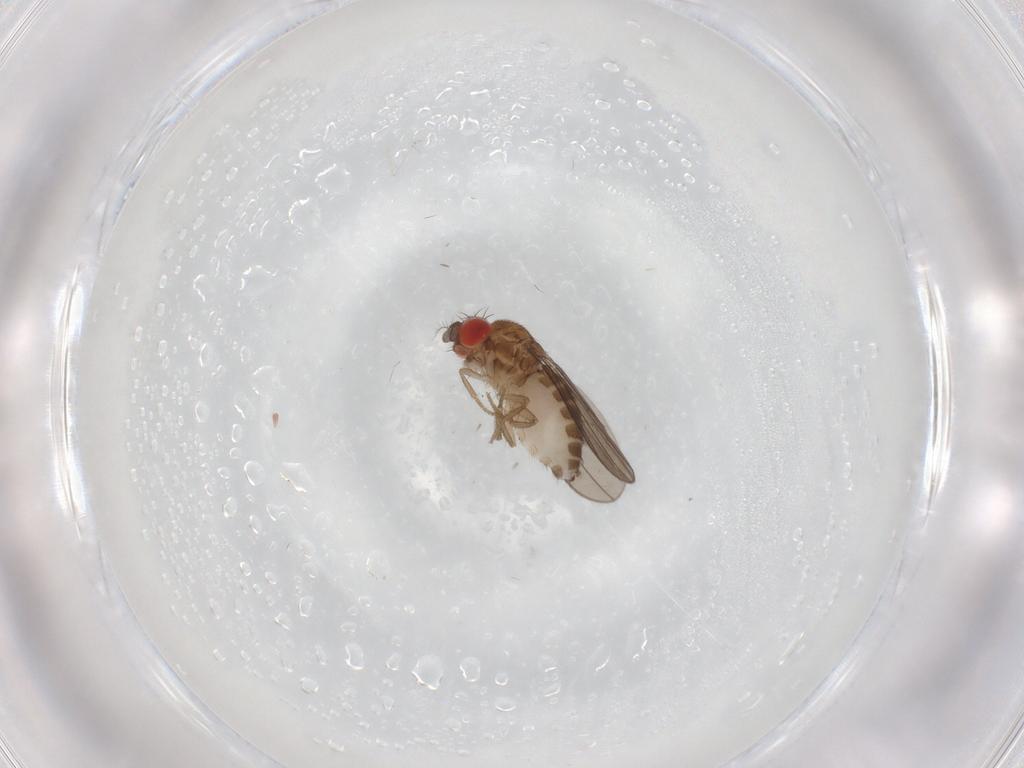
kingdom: Animalia
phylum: Arthropoda
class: Insecta
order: Diptera
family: Drosophilidae
